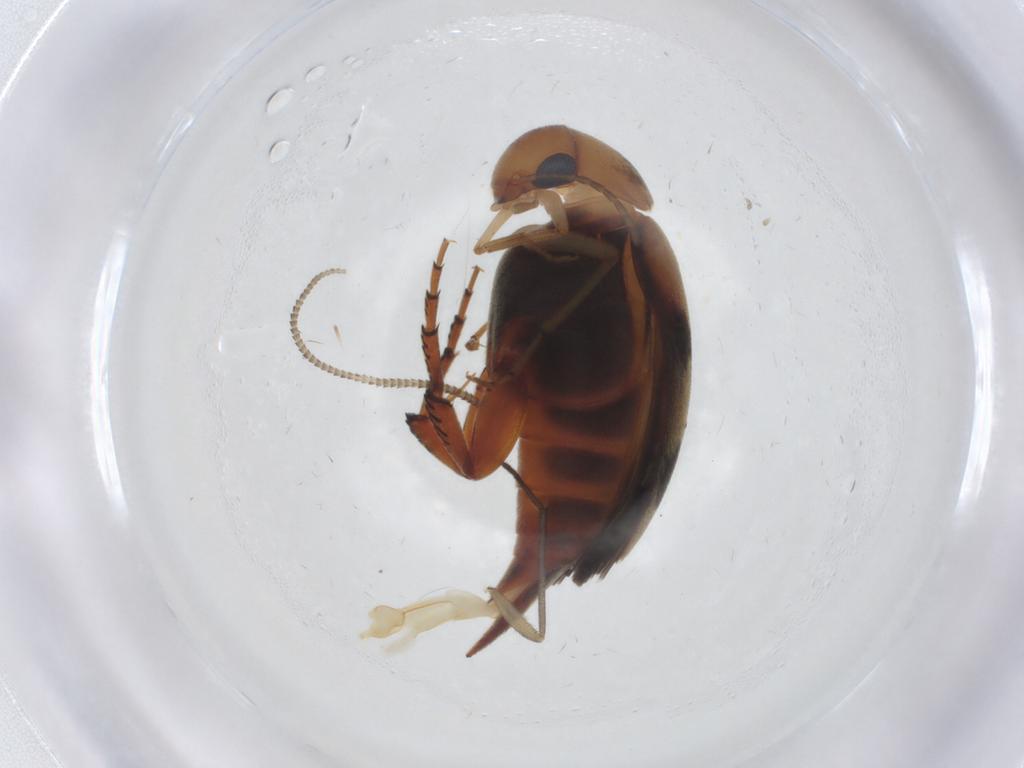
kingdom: Animalia
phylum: Arthropoda
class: Insecta
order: Coleoptera
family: Mordellidae
